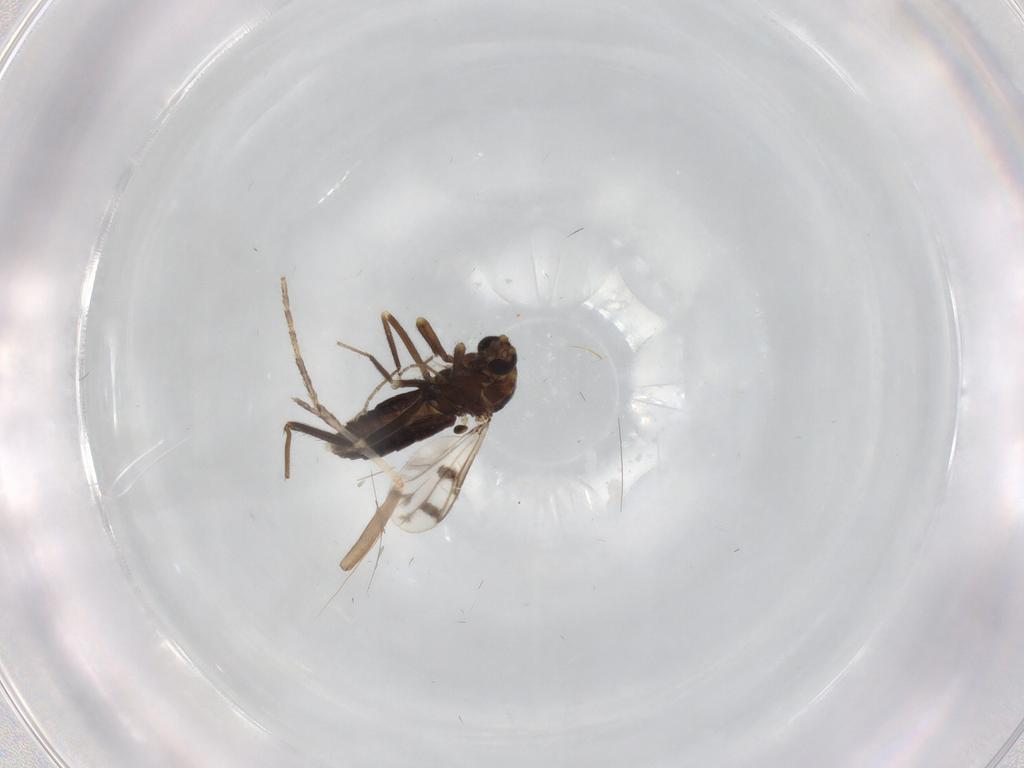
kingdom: Animalia
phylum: Arthropoda
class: Insecta
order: Diptera
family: Ceratopogonidae
